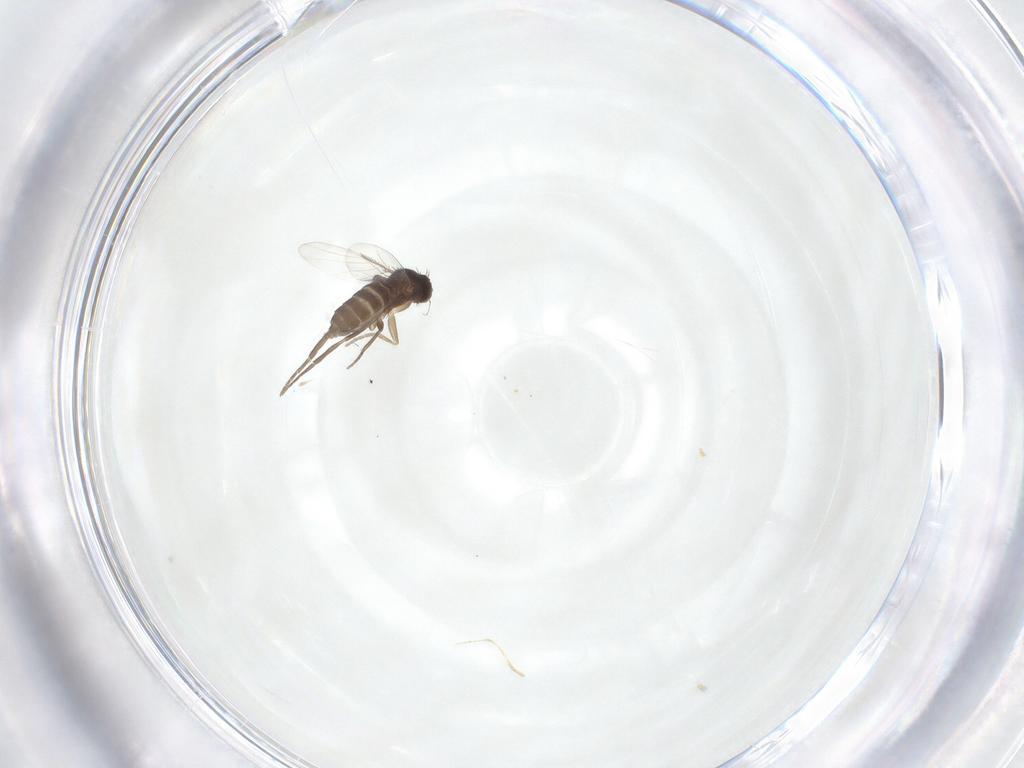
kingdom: Animalia
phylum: Arthropoda
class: Insecta
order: Diptera
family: Phoridae
